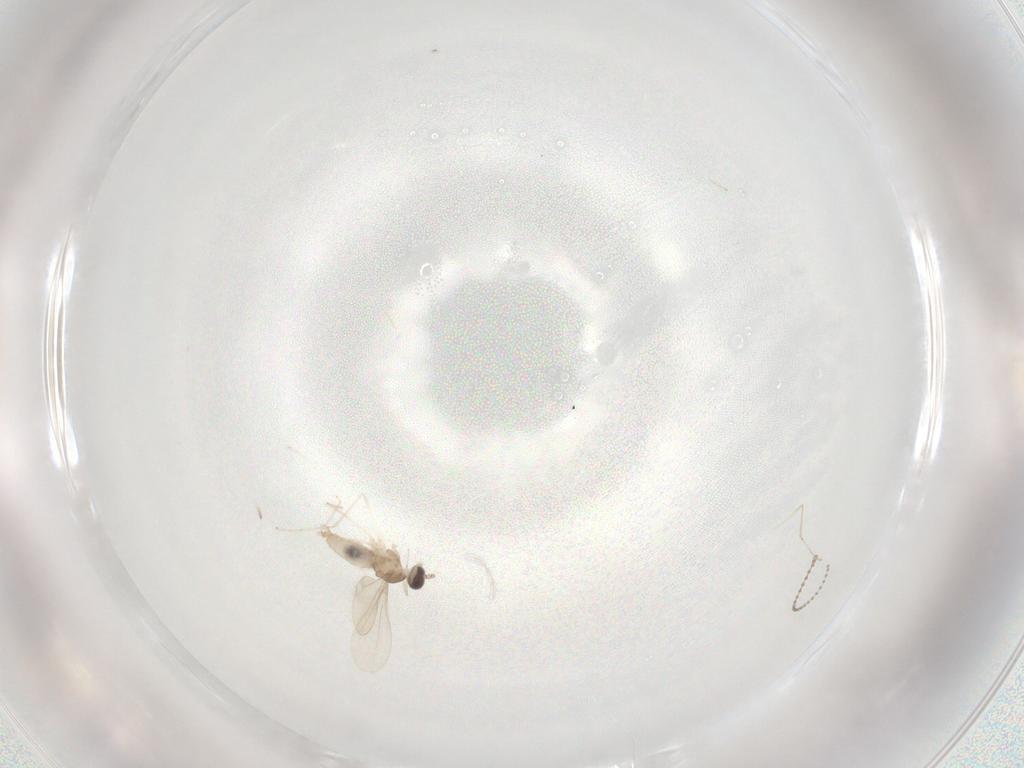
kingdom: Animalia
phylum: Arthropoda
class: Insecta
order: Diptera
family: Cecidomyiidae
